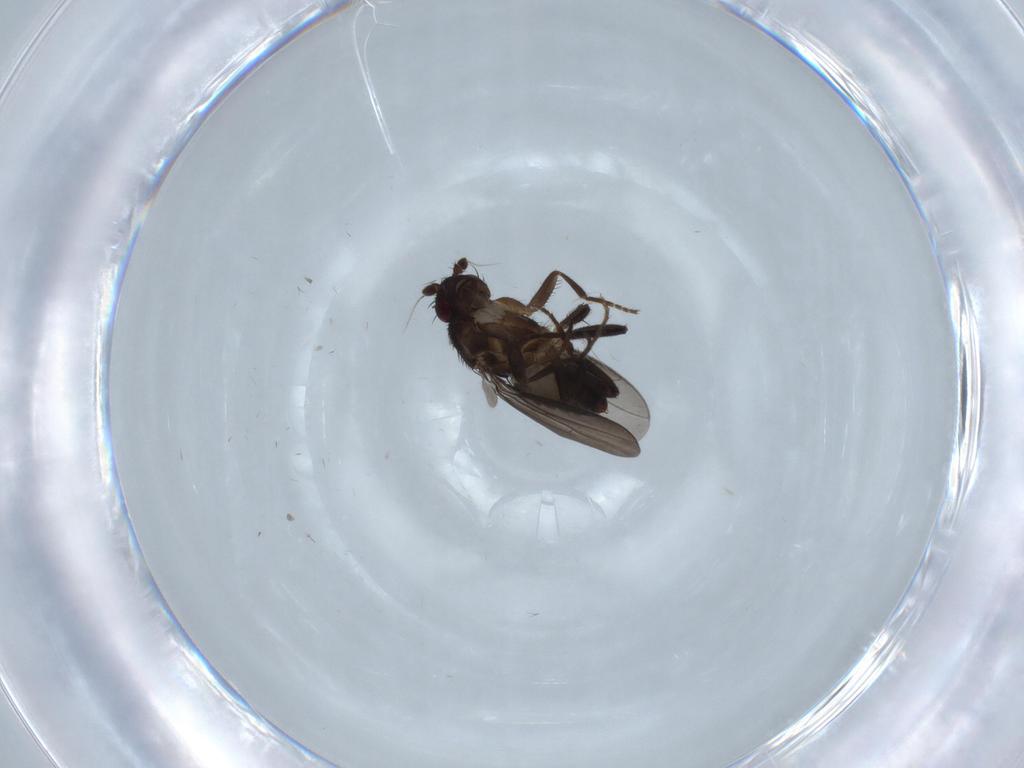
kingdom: Animalia
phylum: Arthropoda
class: Insecta
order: Diptera
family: Sphaeroceridae
